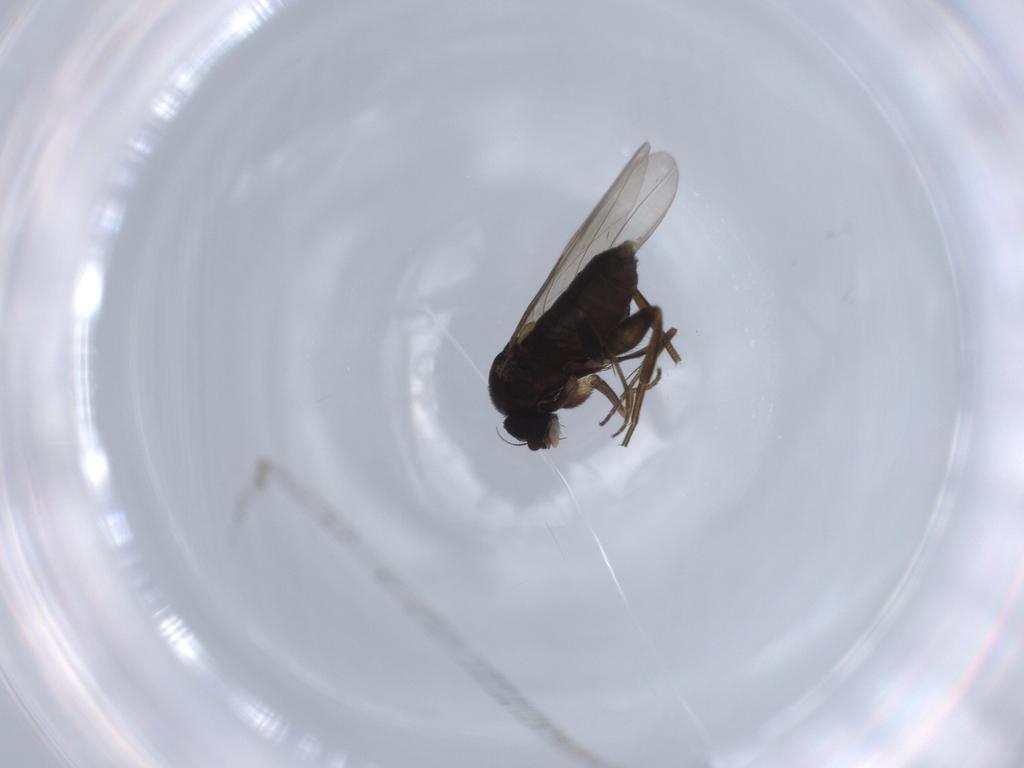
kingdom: Animalia
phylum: Arthropoda
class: Insecta
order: Diptera
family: Phoridae
